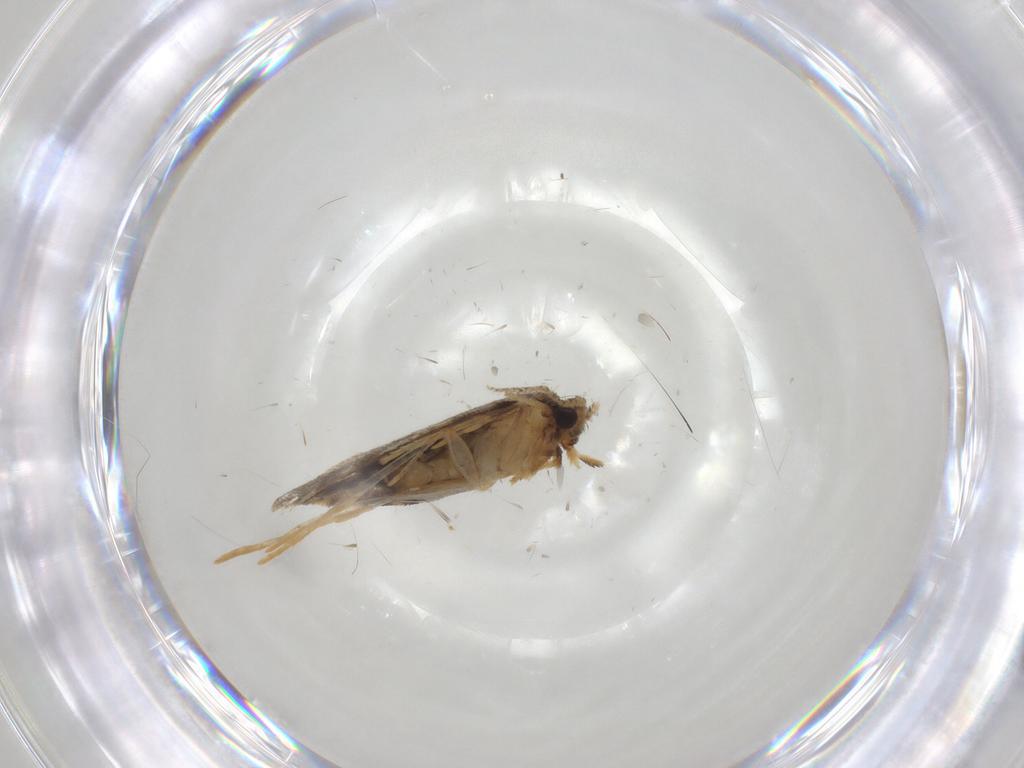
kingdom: Animalia
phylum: Arthropoda
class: Insecta
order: Lepidoptera
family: Psychidae
